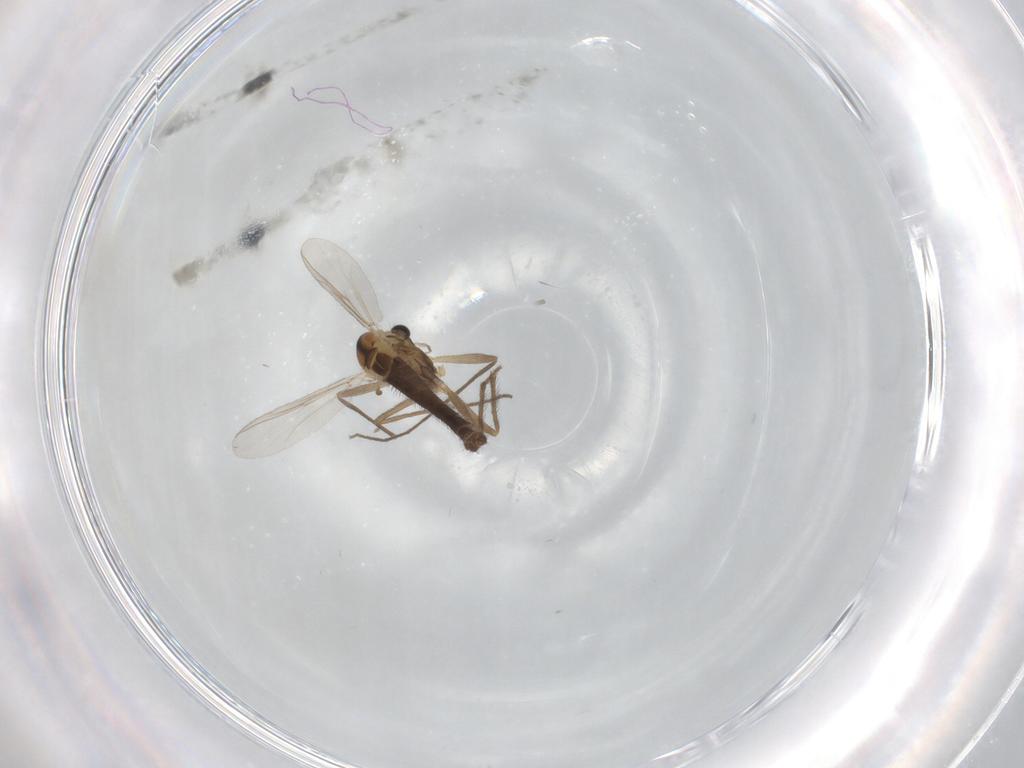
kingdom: Animalia
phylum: Arthropoda
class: Insecta
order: Diptera
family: Chironomidae
